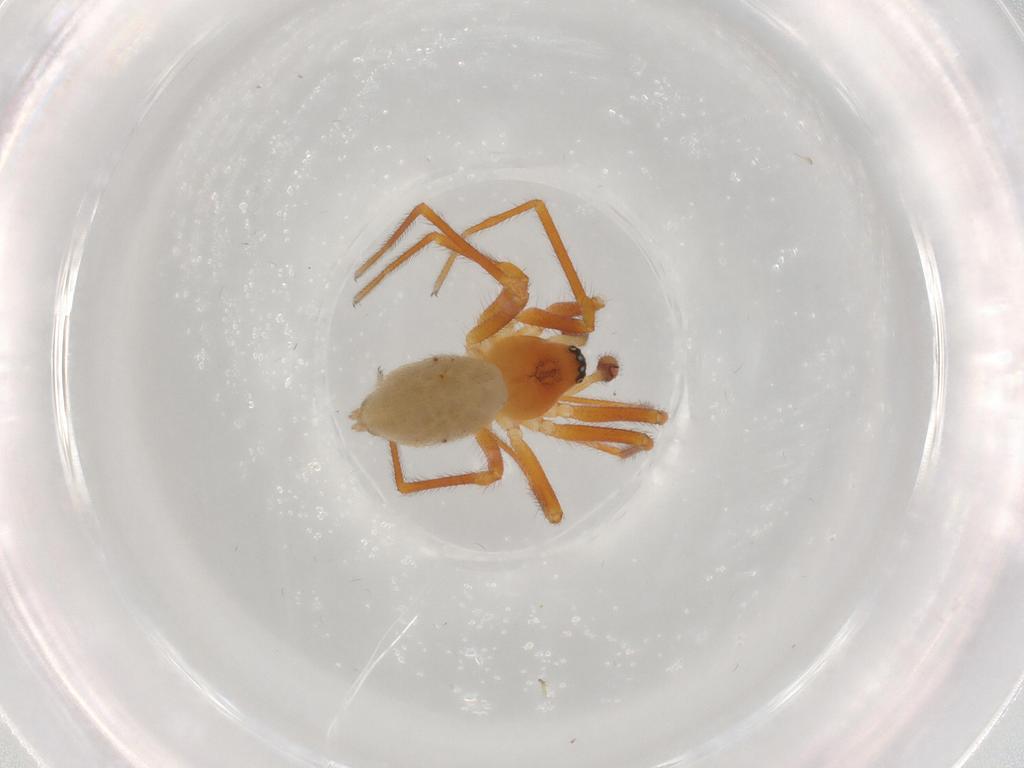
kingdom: Animalia
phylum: Arthropoda
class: Arachnida
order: Araneae
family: Linyphiidae
